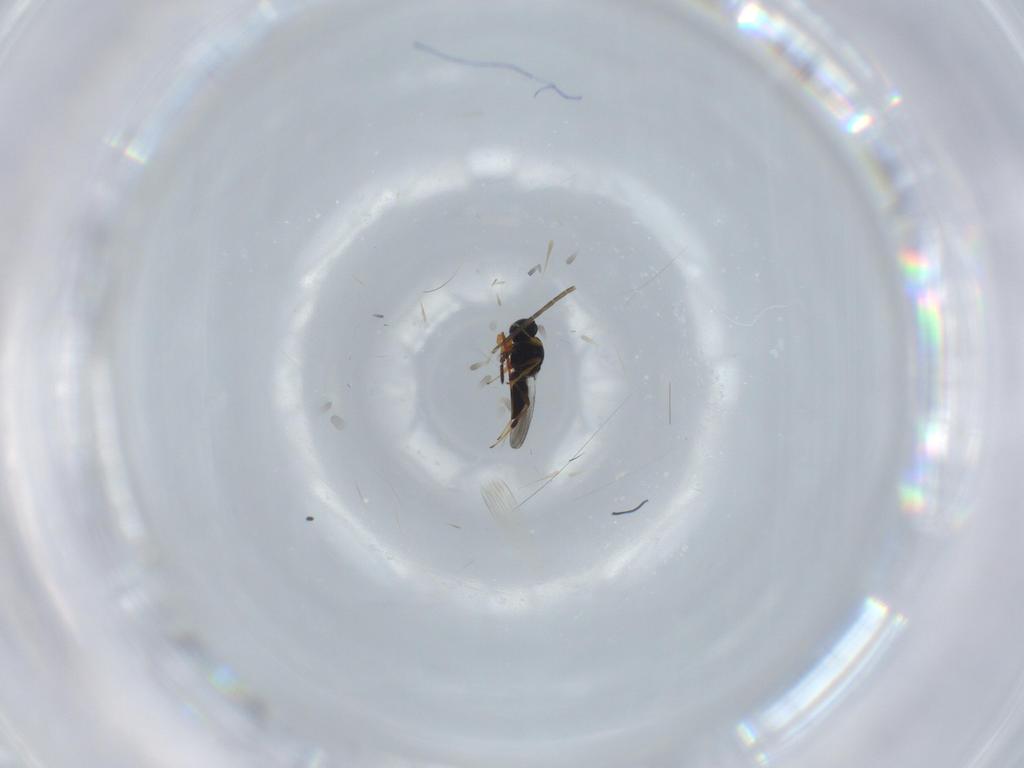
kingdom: Animalia
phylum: Arthropoda
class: Insecta
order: Hymenoptera
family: Platygastridae
